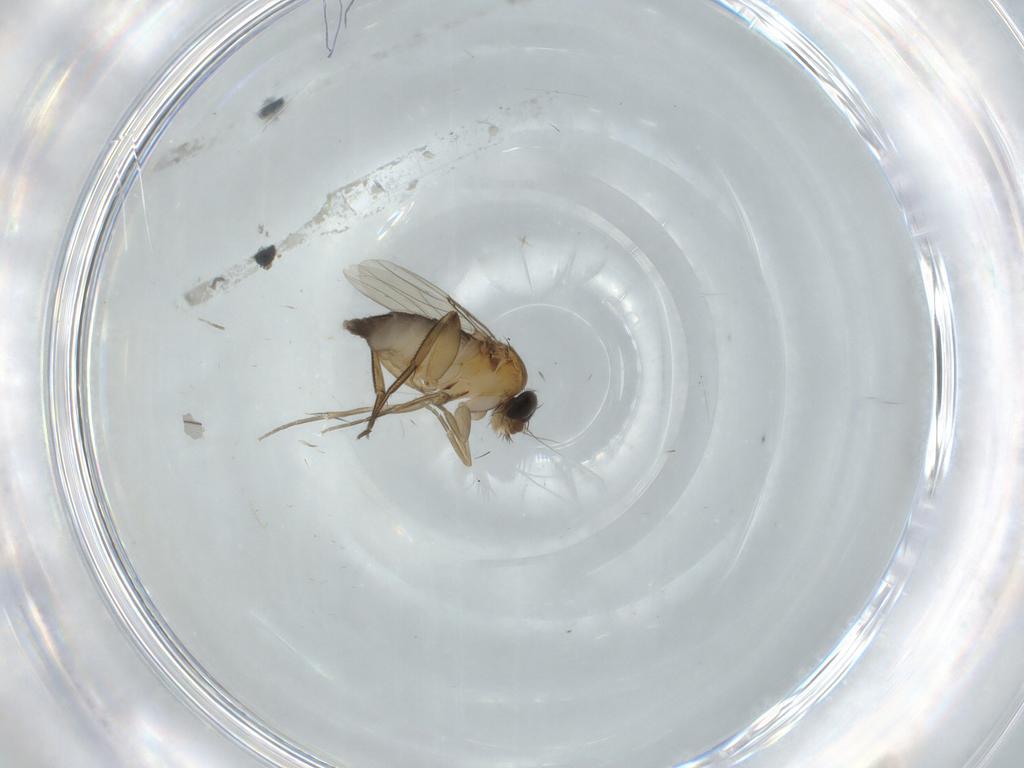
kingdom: Animalia
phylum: Arthropoda
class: Insecta
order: Diptera
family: Phoridae
